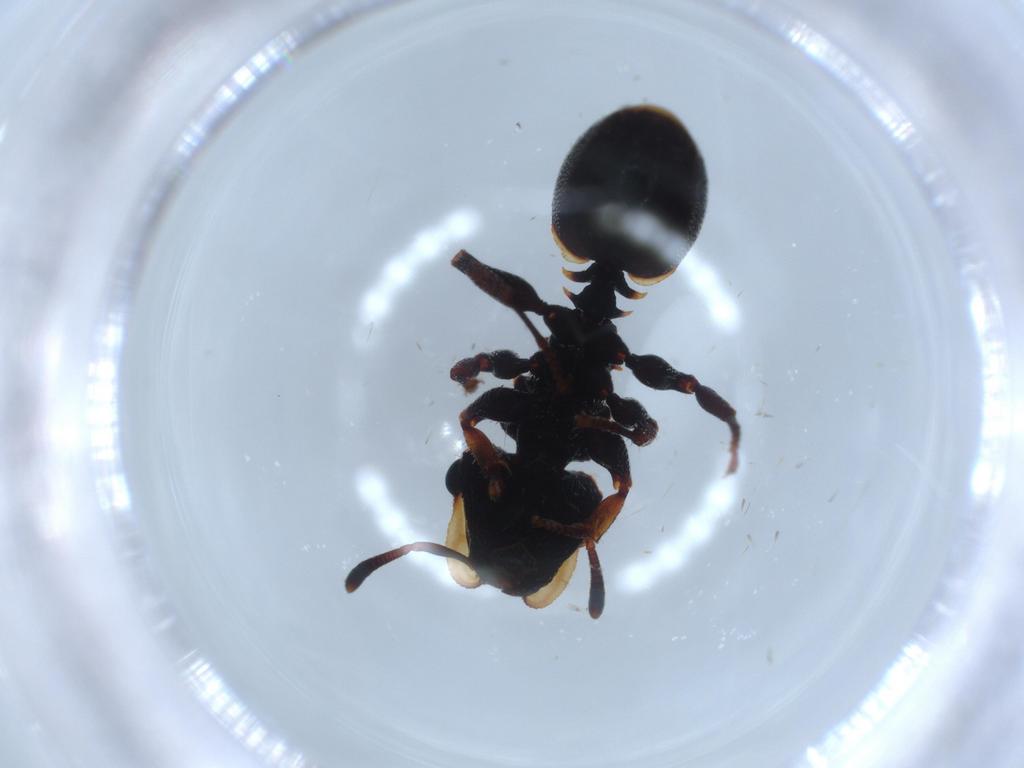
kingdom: Animalia
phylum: Arthropoda
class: Insecta
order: Hymenoptera
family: Formicidae
